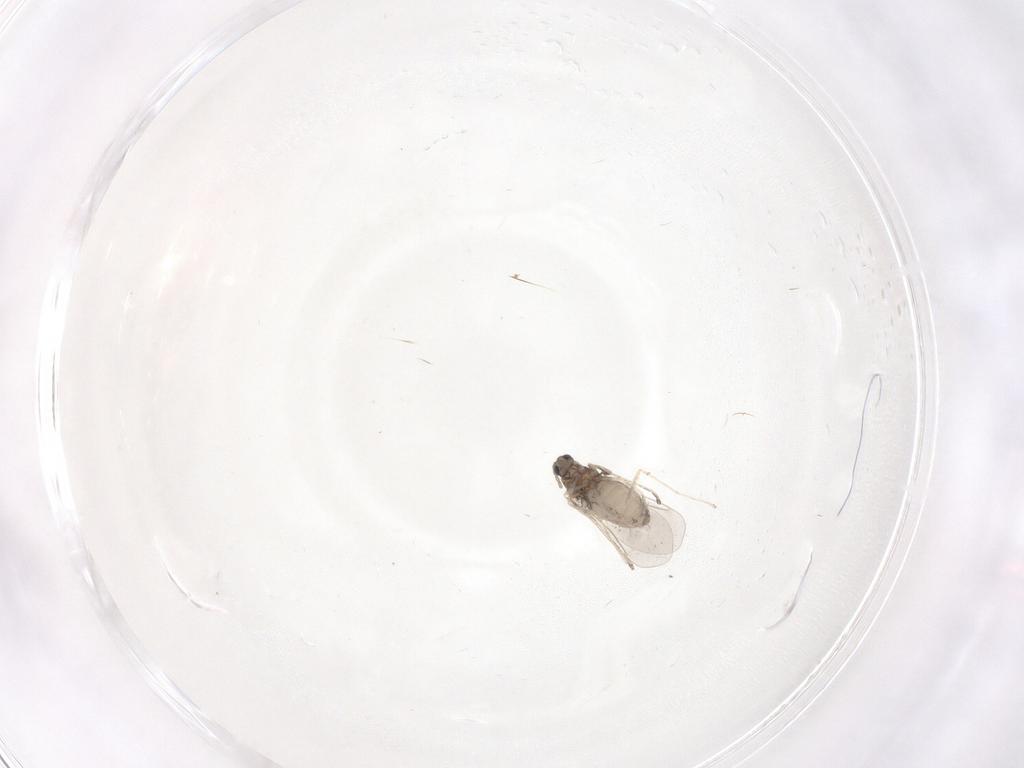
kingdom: Animalia
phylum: Arthropoda
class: Insecta
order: Diptera
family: Cecidomyiidae
